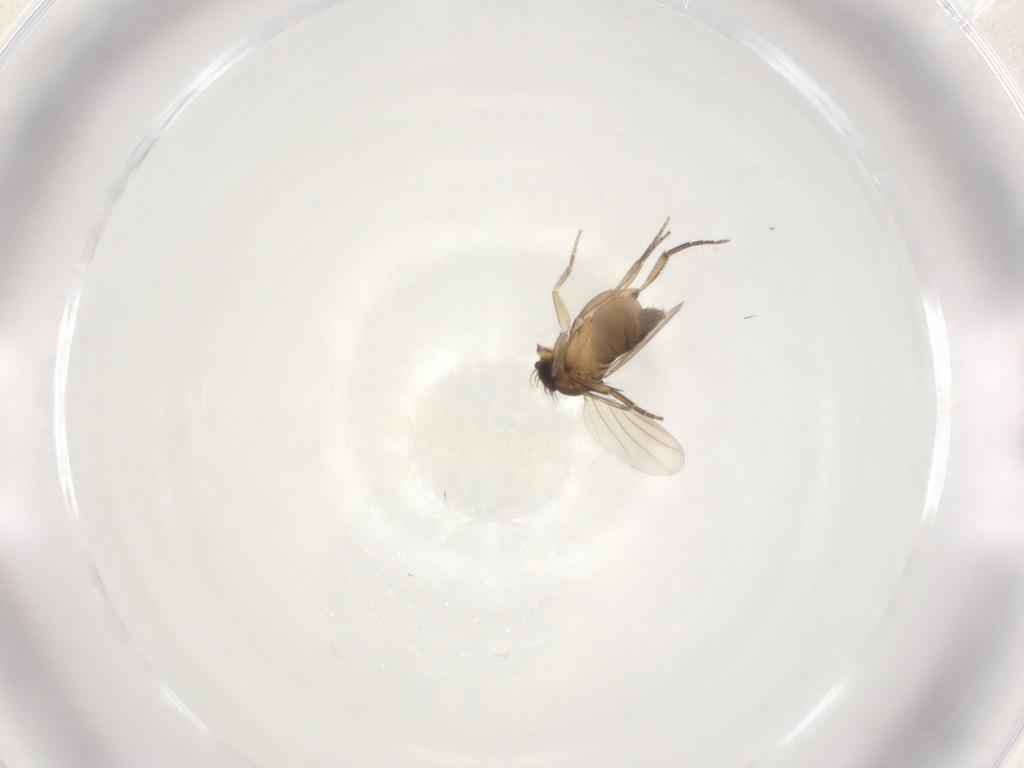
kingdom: Animalia
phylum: Arthropoda
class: Insecta
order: Diptera
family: Phoridae
